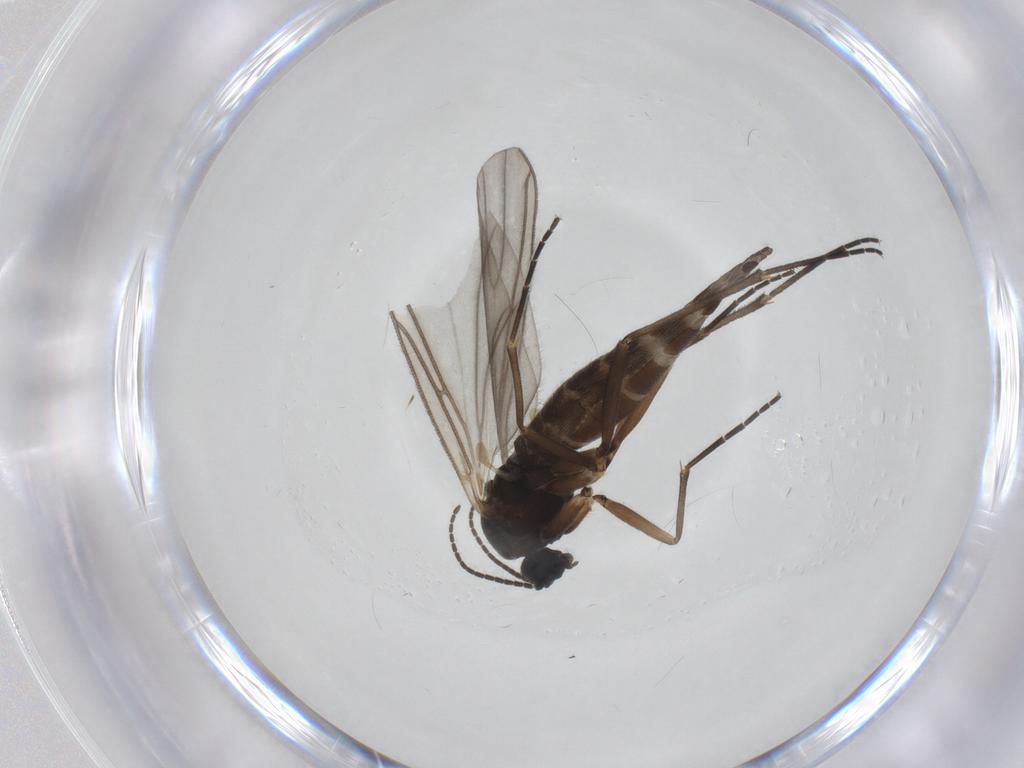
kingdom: Animalia
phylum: Arthropoda
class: Insecta
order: Diptera
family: Sciaridae
